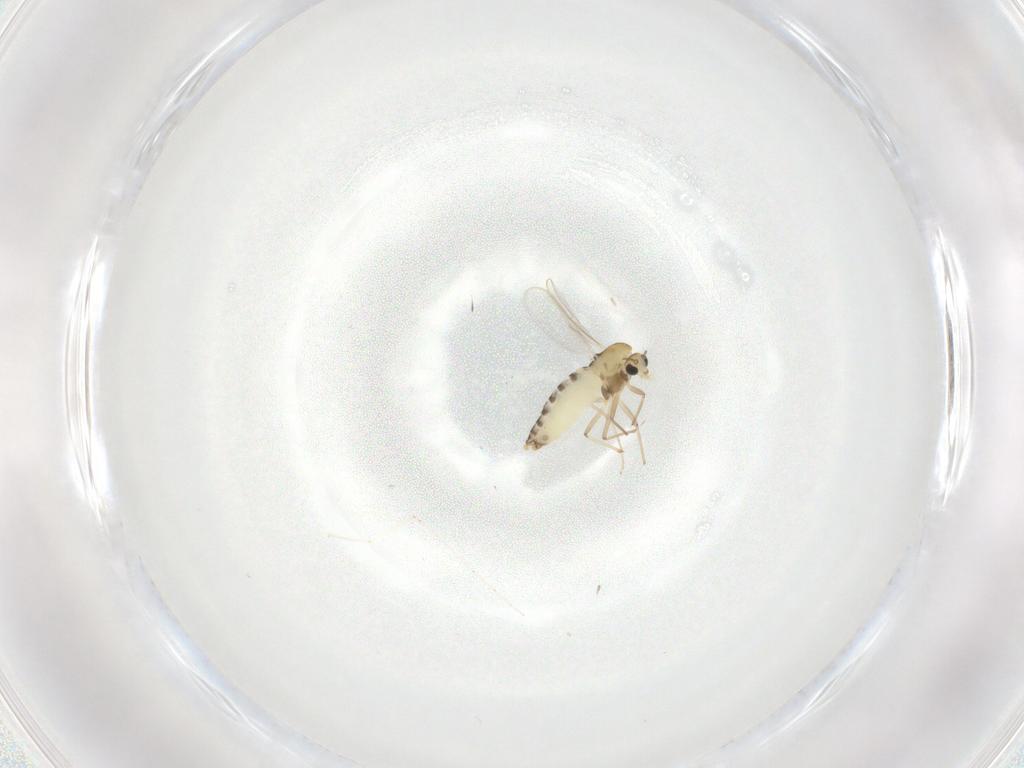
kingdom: Animalia
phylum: Arthropoda
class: Insecta
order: Diptera
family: Chironomidae
